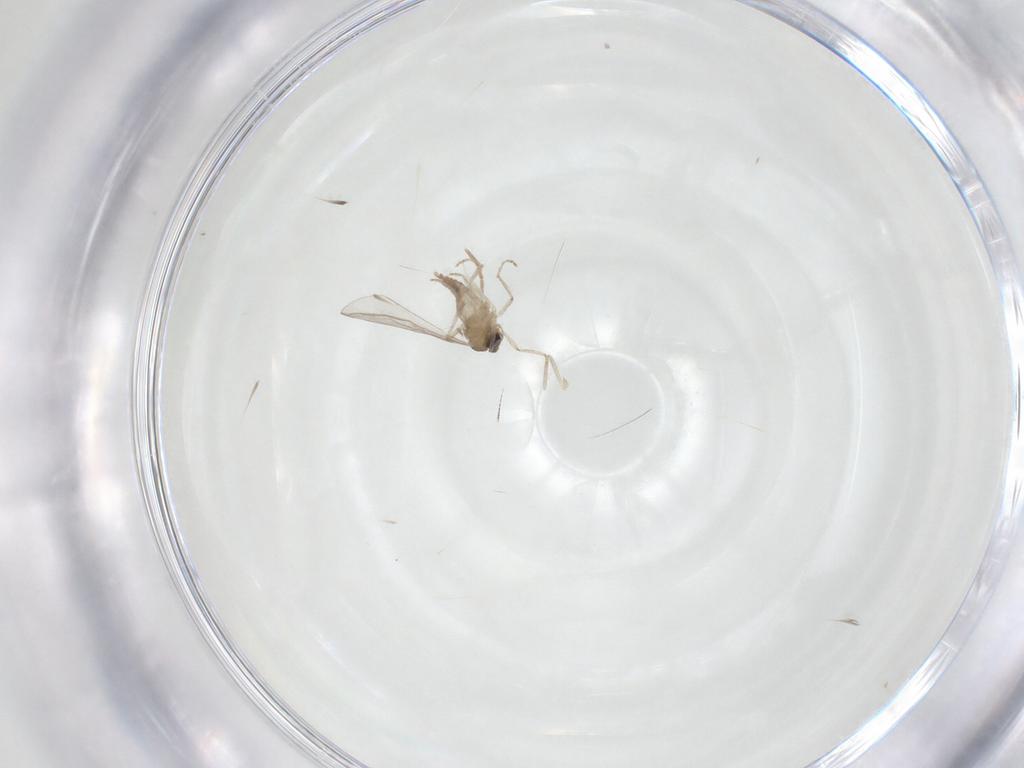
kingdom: Animalia
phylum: Arthropoda
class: Insecta
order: Diptera
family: Cecidomyiidae
